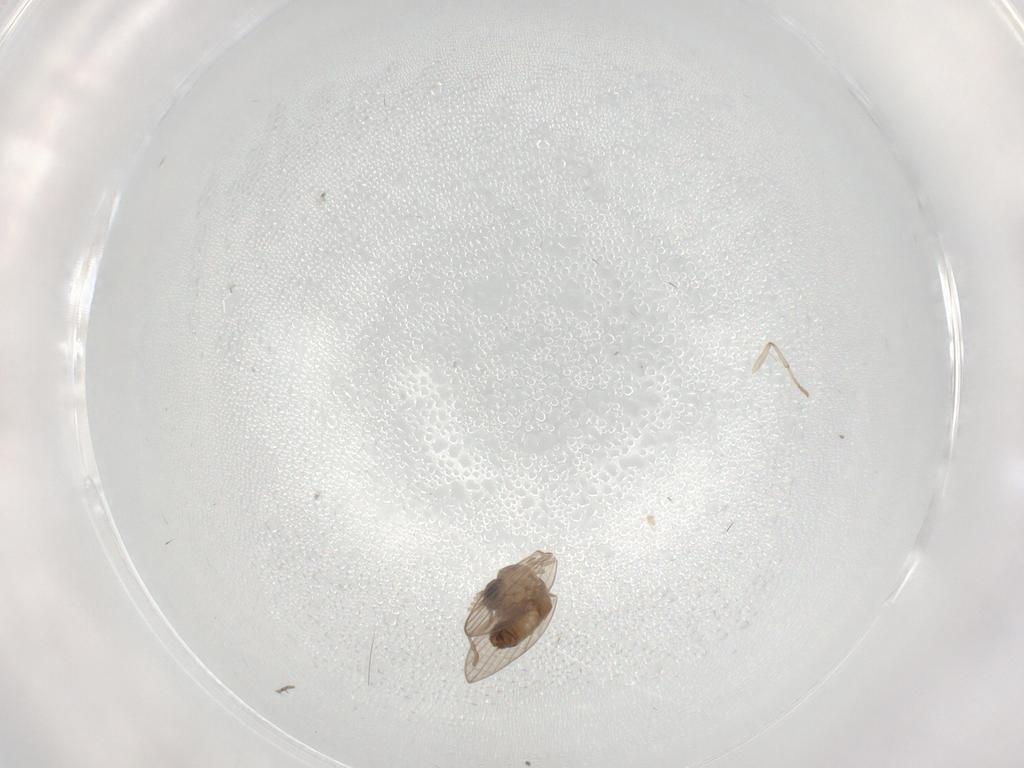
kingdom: Animalia
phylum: Arthropoda
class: Insecta
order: Diptera
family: Psychodidae
